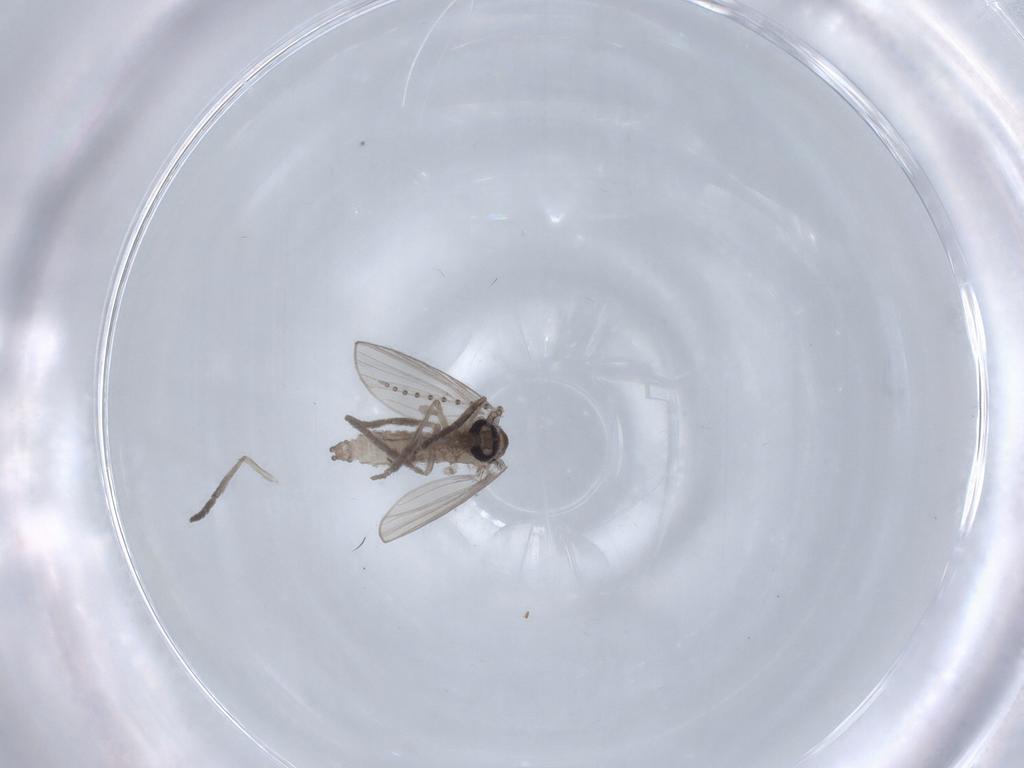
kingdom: Animalia
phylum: Arthropoda
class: Insecta
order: Diptera
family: Psychodidae
